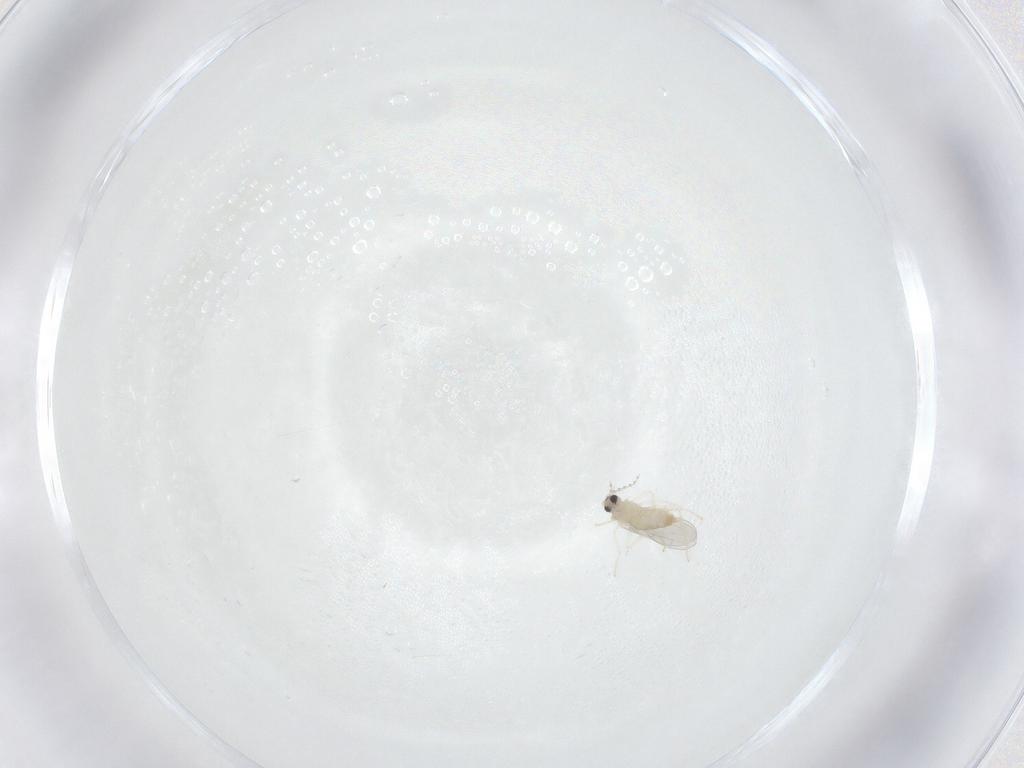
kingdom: Animalia
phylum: Arthropoda
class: Insecta
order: Diptera
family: Cecidomyiidae
